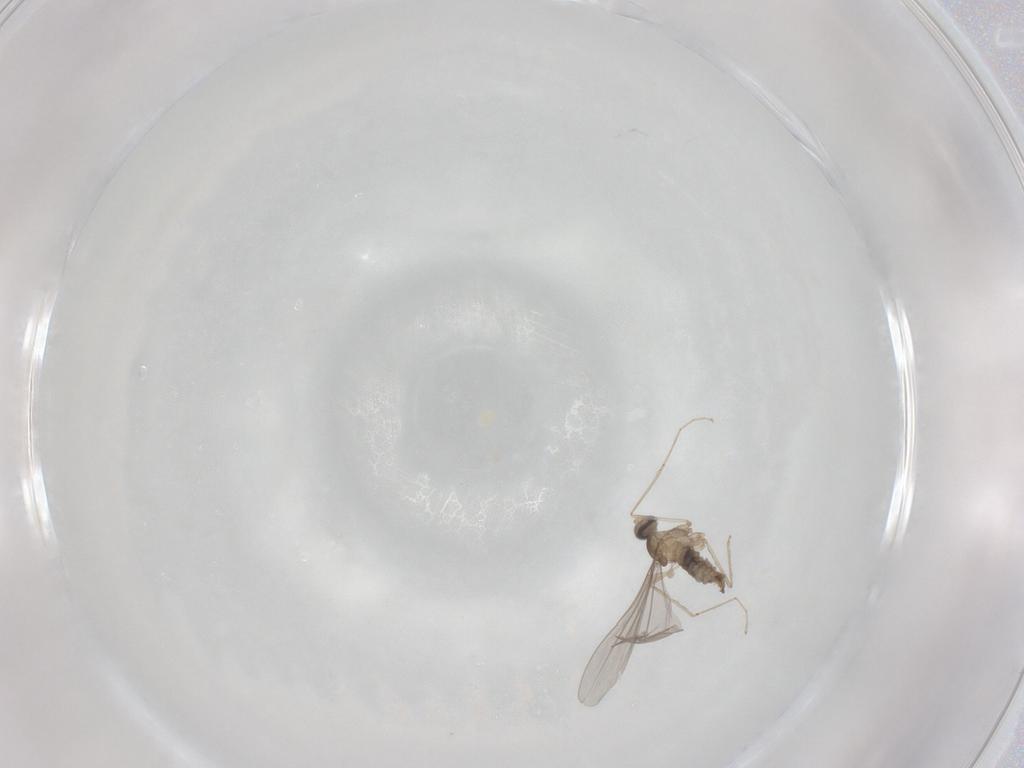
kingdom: Animalia
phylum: Arthropoda
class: Insecta
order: Diptera
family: Cecidomyiidae
